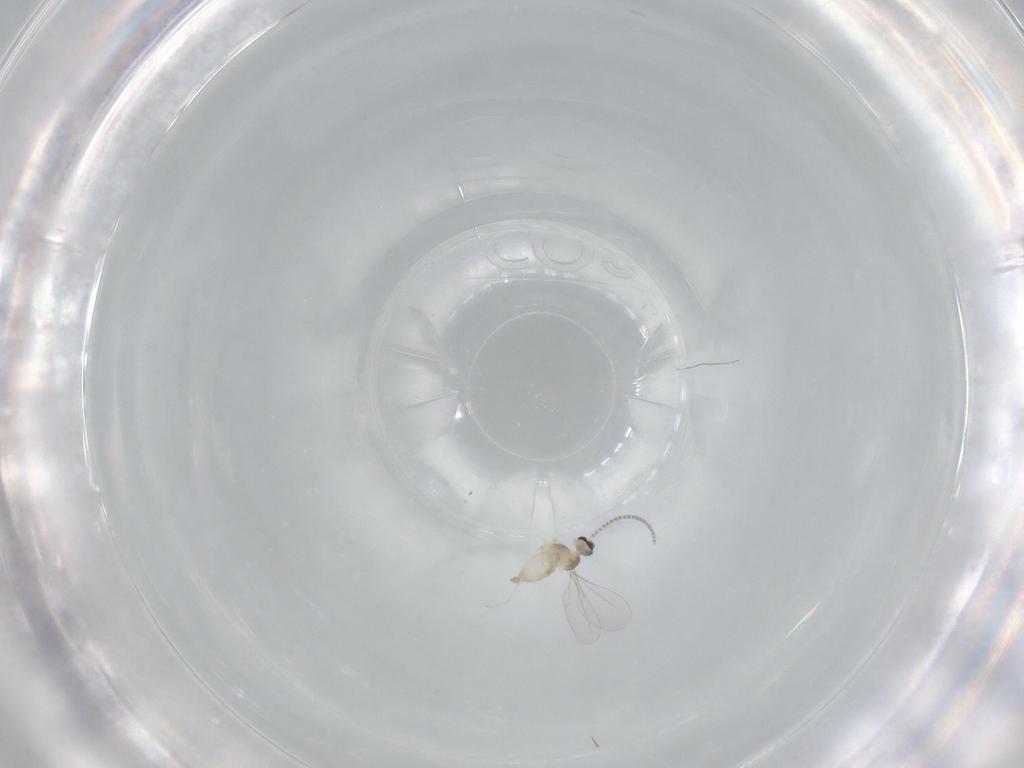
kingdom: Animalia
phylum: Arthropoda
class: Insecta
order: Diptera
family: Cecidomyiidae
